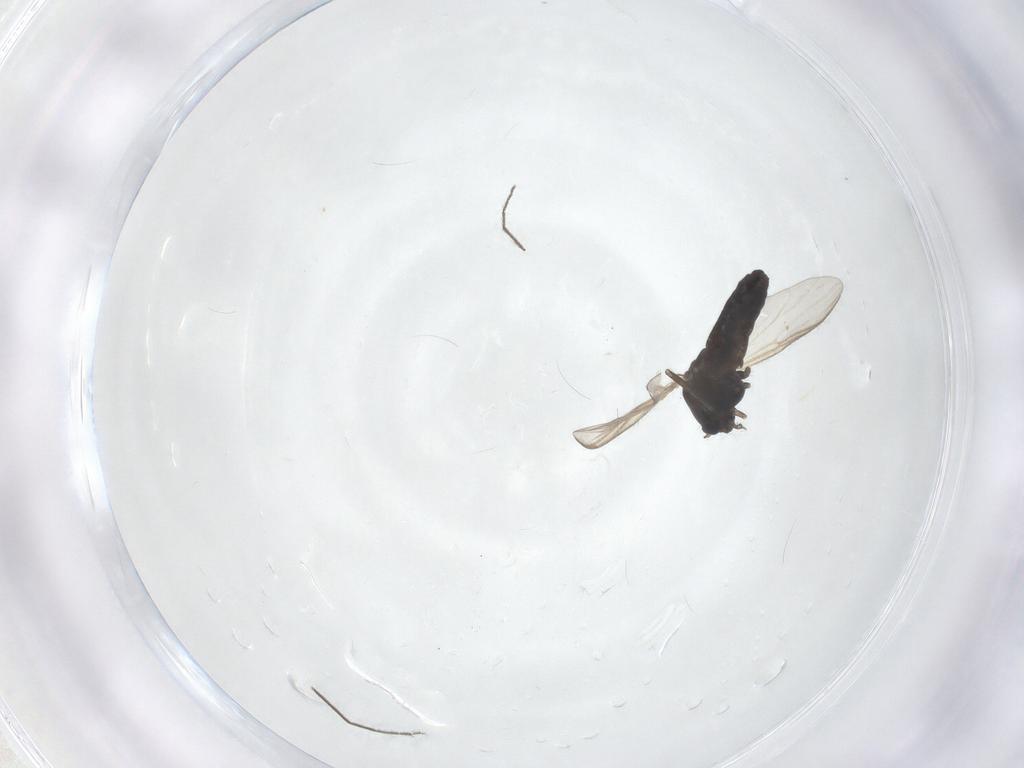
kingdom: Animalia
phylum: Arthropoda
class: Insecta
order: Diptera
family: Chironomidae
